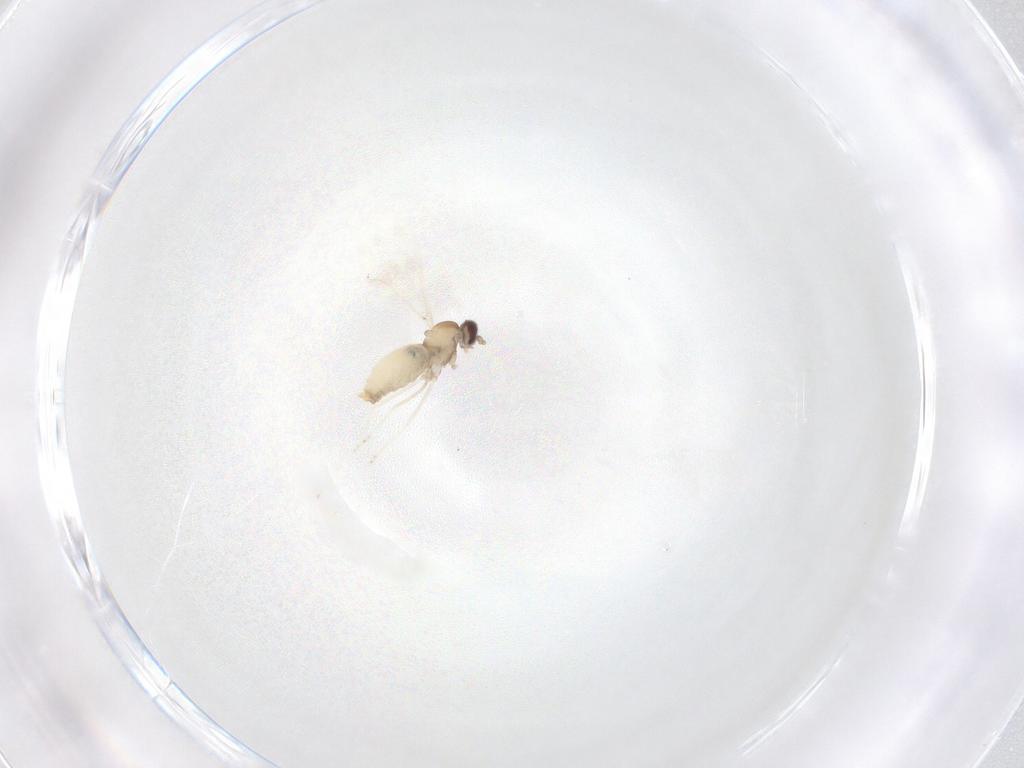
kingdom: Animalia
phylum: Arthropoda
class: Insecta
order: Diptera
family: Cecidomyiidae
